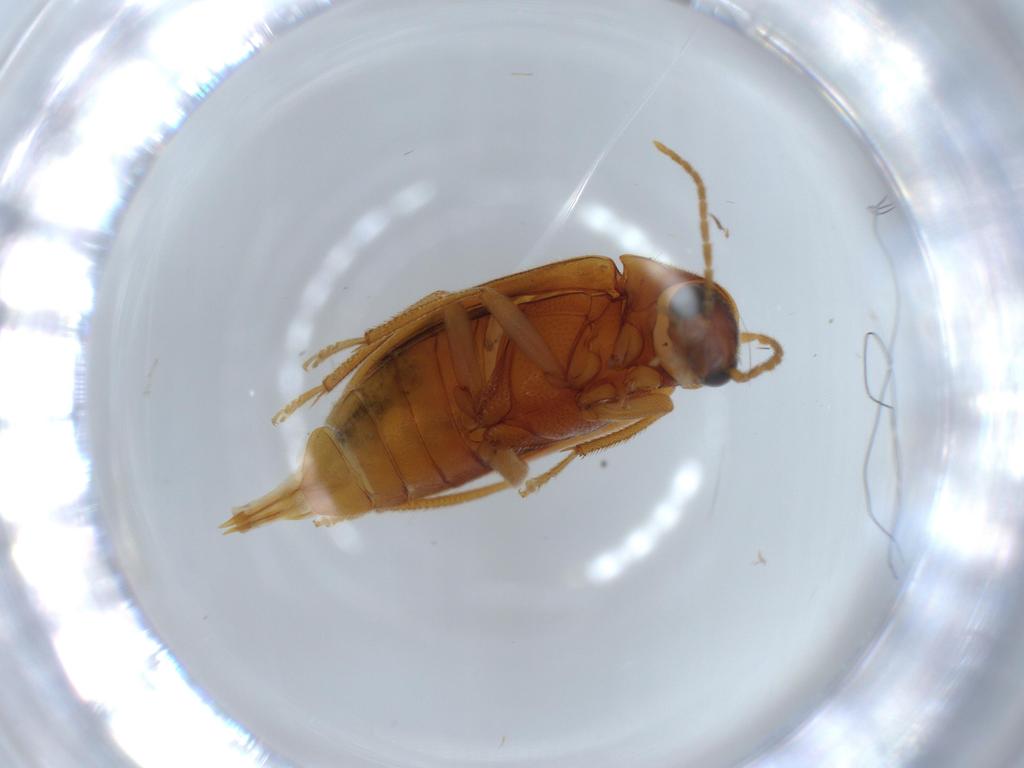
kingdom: Animalia
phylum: Arthropoda
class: Insecta
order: Coleoptera
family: Ptilodactylidae
